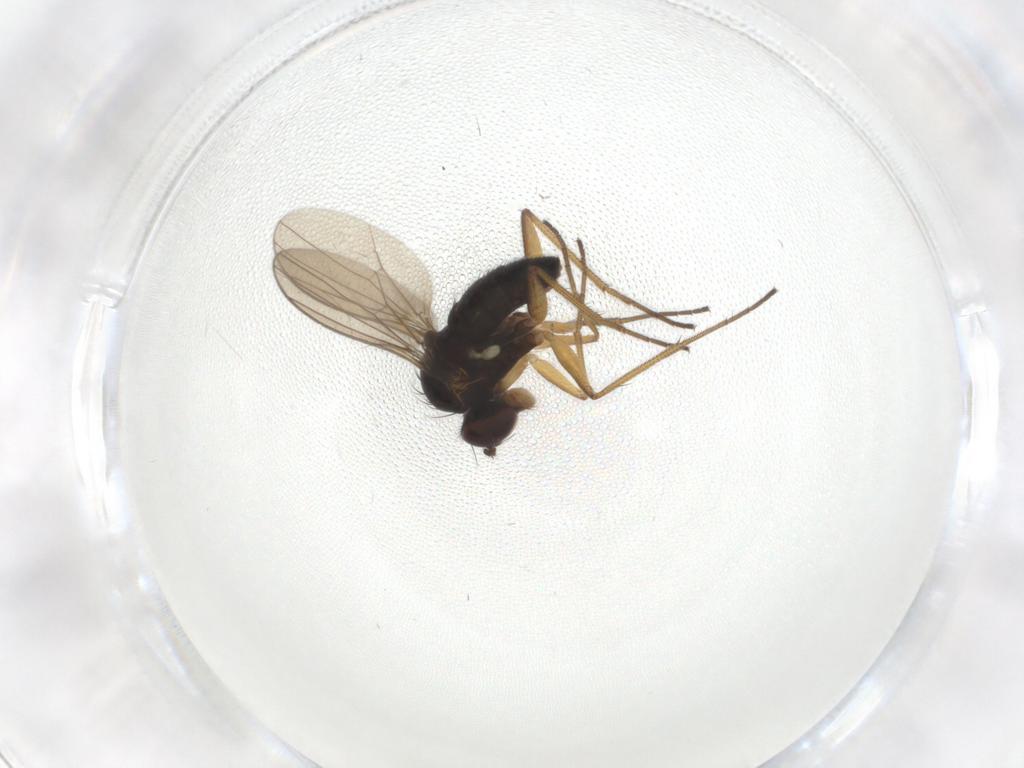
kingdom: Animalia
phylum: Arthropoda
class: Insecta
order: Diptera
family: Dolichopodidae
